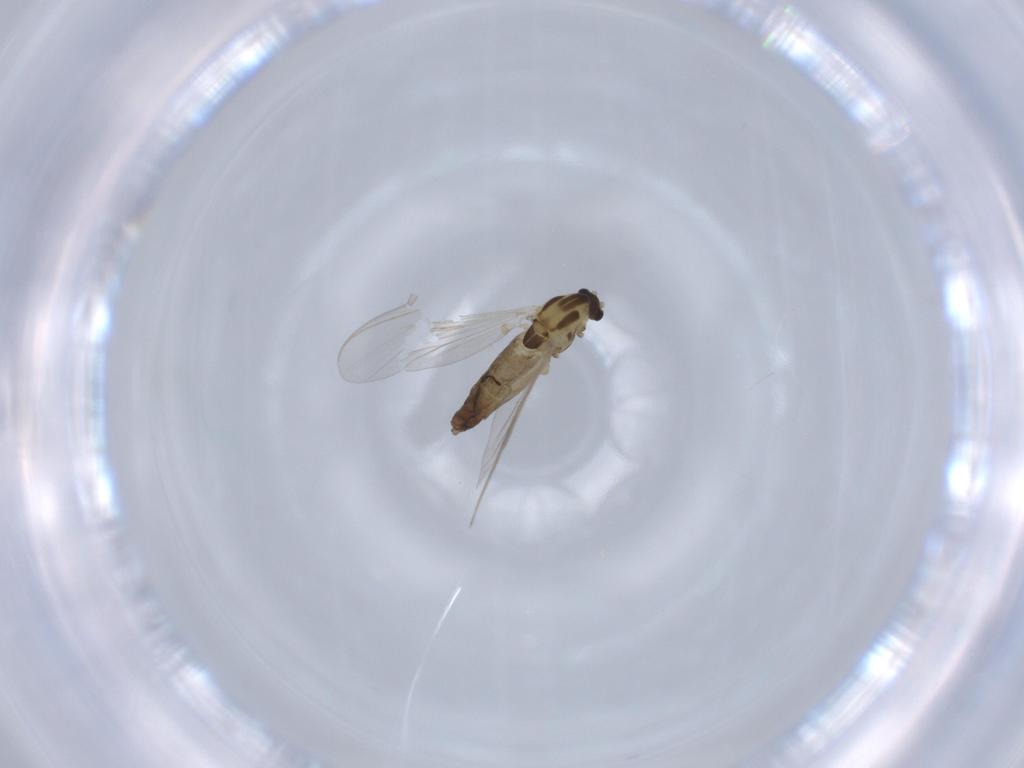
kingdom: Animalia
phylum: Arthropoda
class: Insecta
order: Diptera
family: Chironomidae
